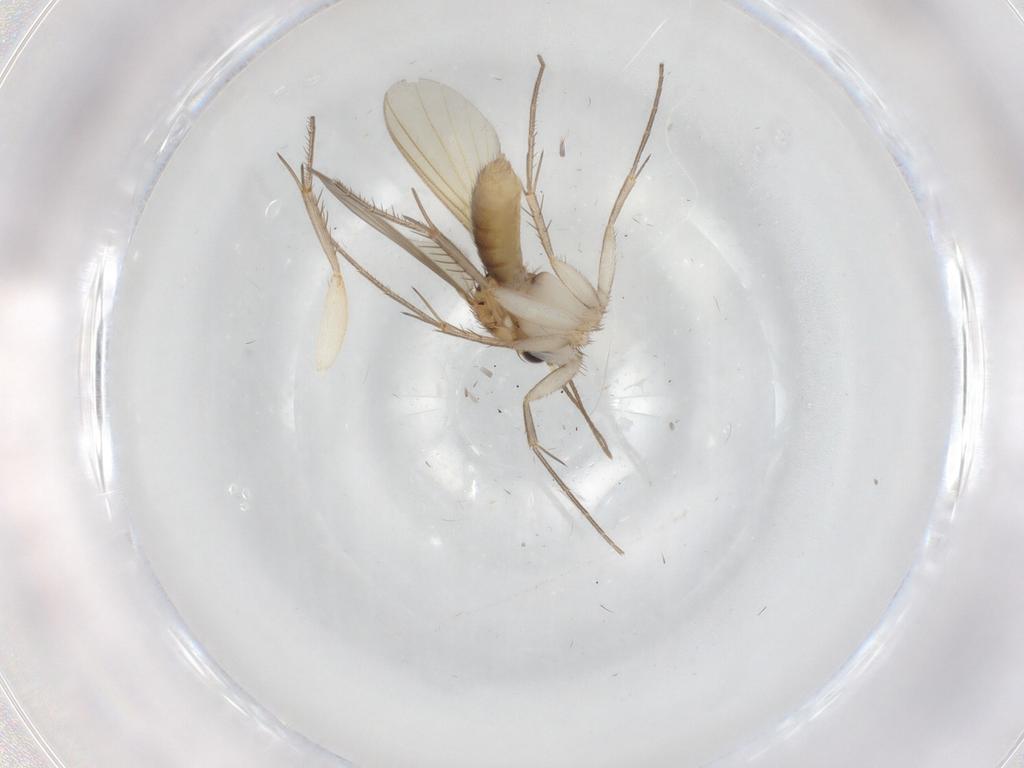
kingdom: Animalia
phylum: Arthropoda
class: Insecta
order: Diptera
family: Mycetophilidae
